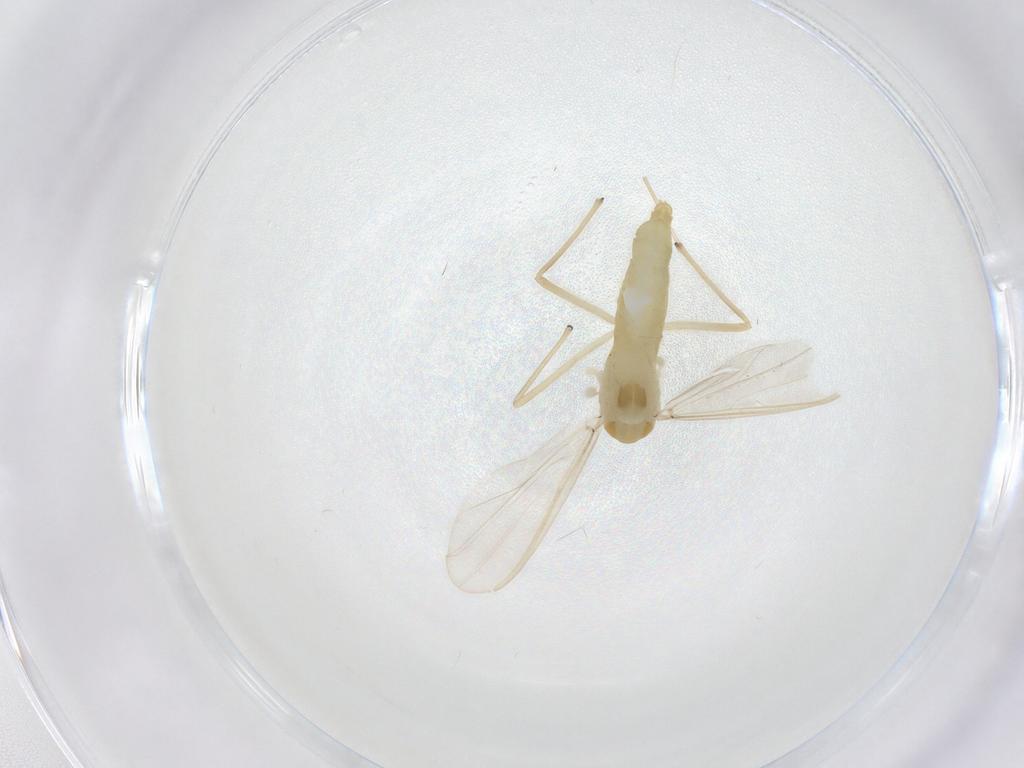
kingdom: Animalia
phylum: Arthropoda
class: Insecta
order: Diptera
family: Chironomidae
